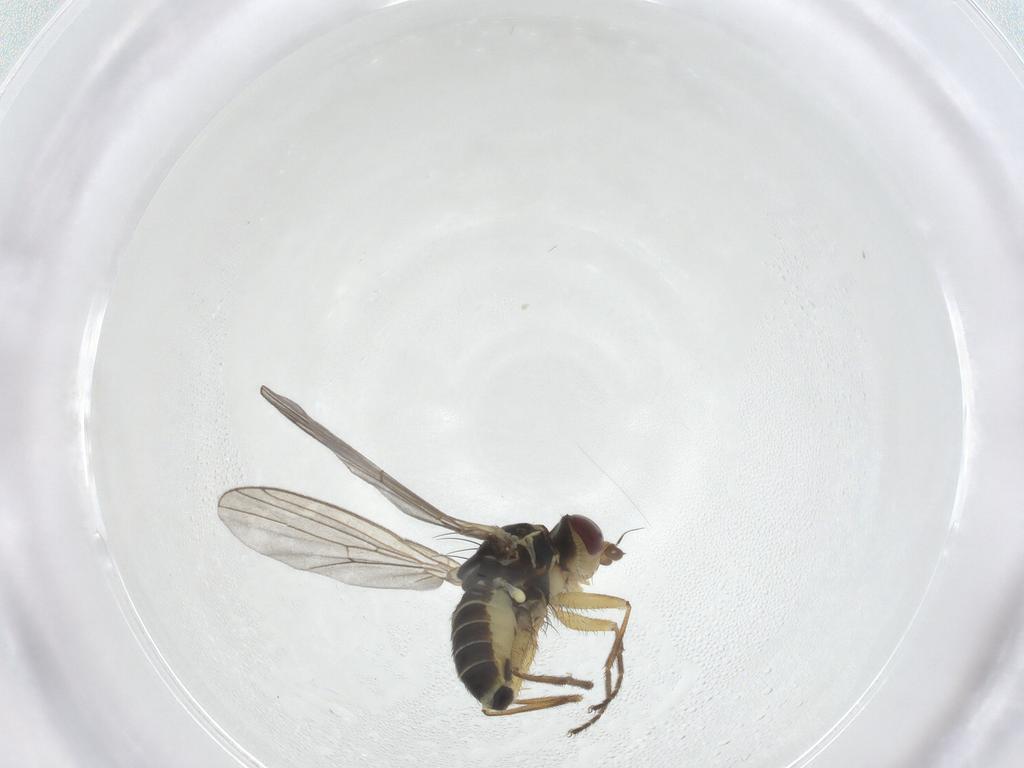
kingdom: Animalia
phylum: Arthropoda
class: Insecta
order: Diptera
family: Agromyzidae
